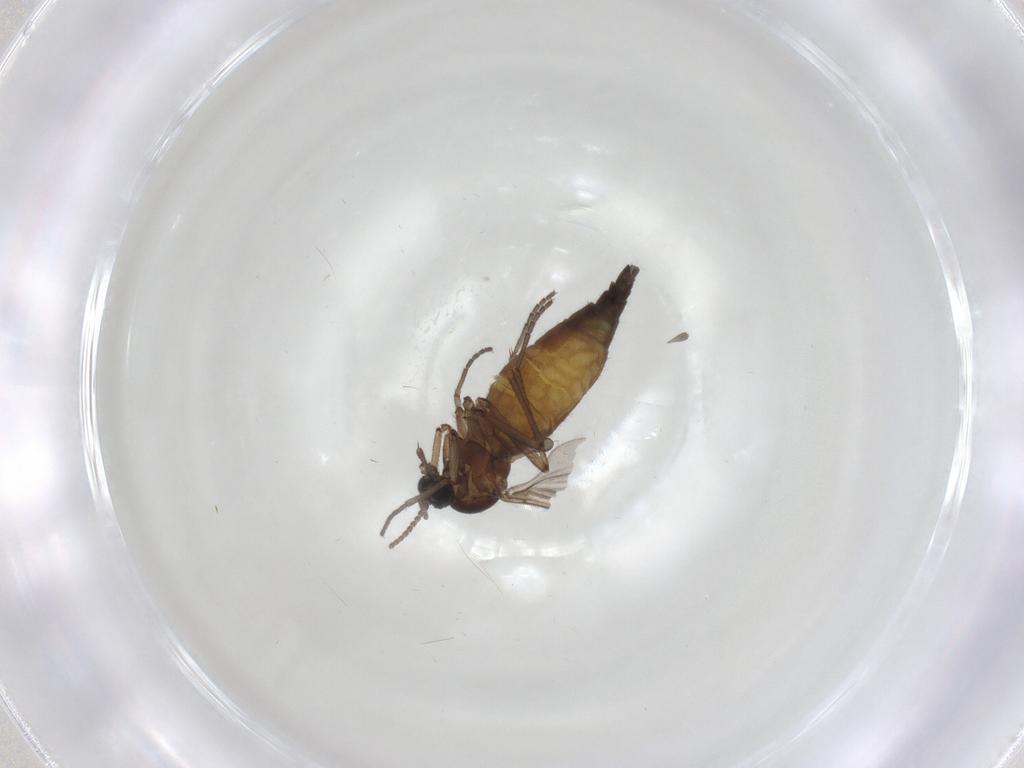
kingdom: Animalia
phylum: Arthropoda
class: Insecta
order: Diptera
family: Sciaridae
